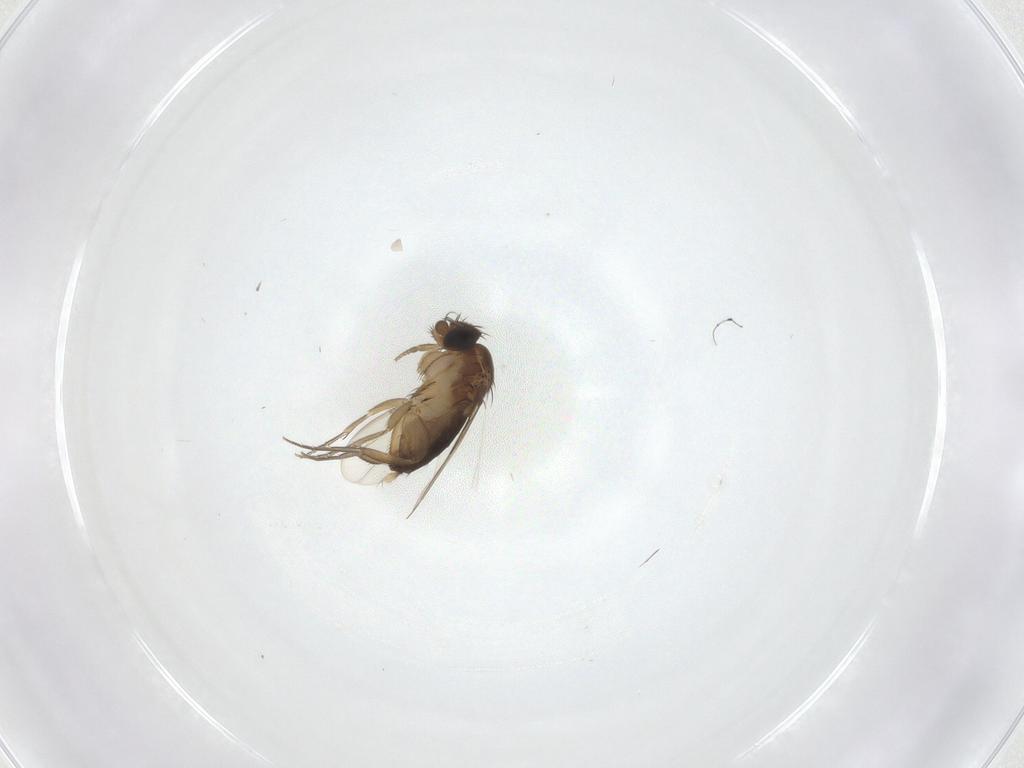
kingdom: Animalia
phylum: Arthropoda
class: Insecta
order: Diptera
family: Phoridae
